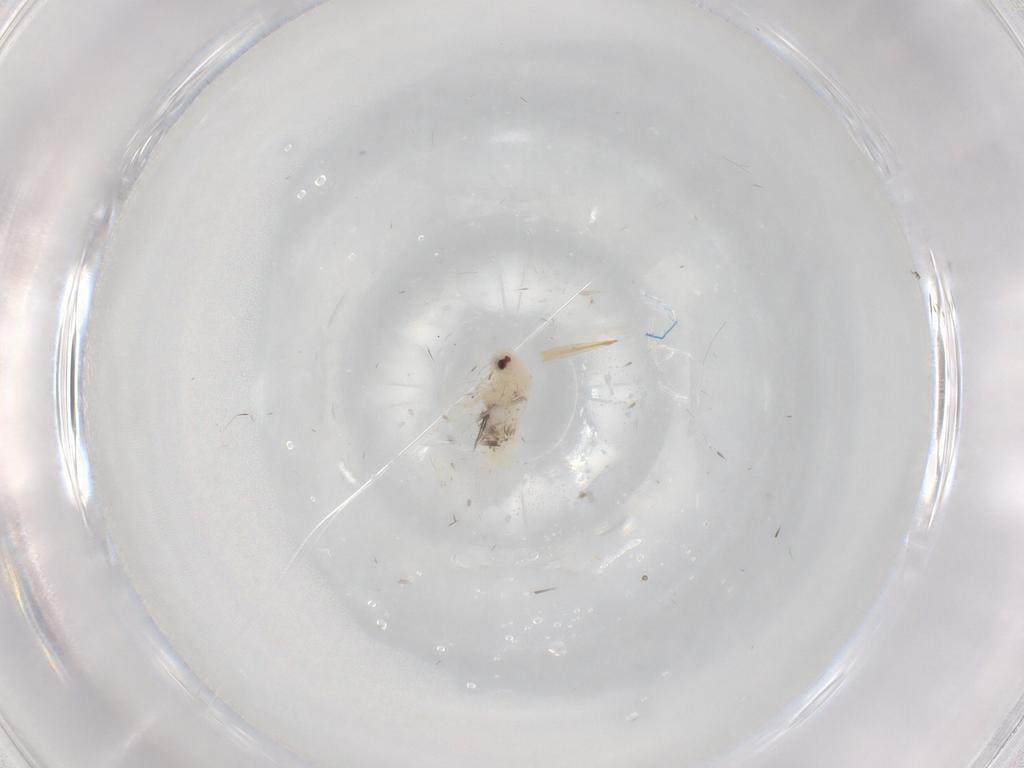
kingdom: Animalia
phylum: Arthropoda
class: Insecta
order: Hemiptera
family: Aleyrodidae
